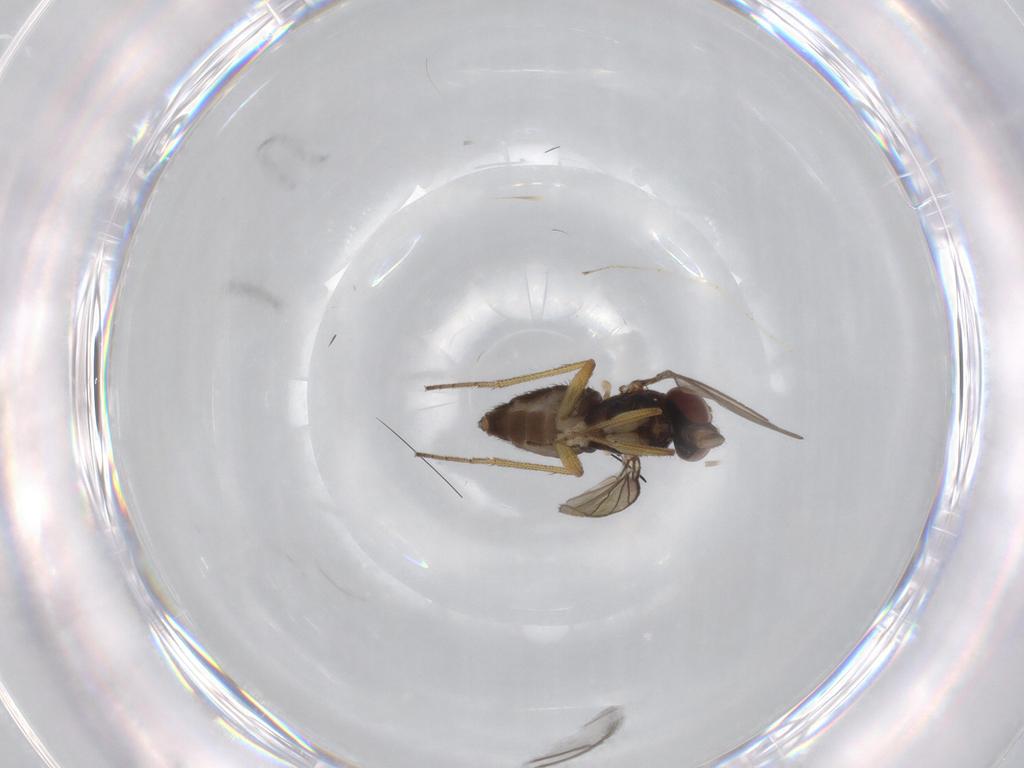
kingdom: Animalia
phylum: Arthropoda
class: Insecta
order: Diptera
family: Dolichopodidae
